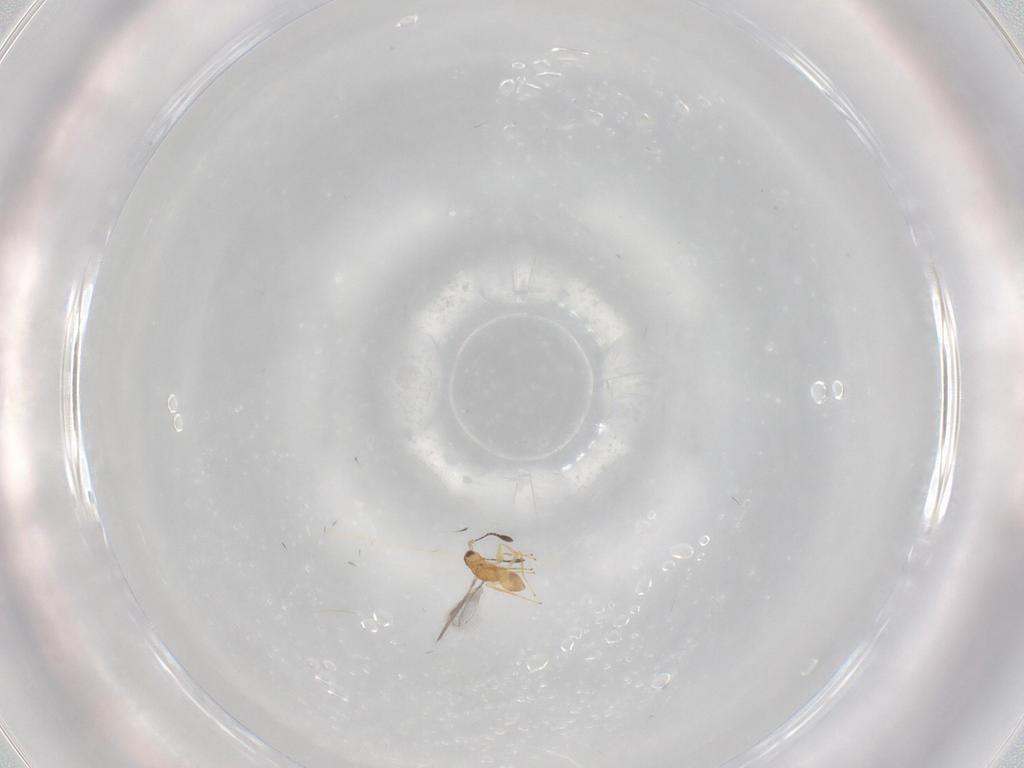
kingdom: Animalia
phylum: Arthropoda
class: Insecta
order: Hymenoptera
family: Mymaridae
